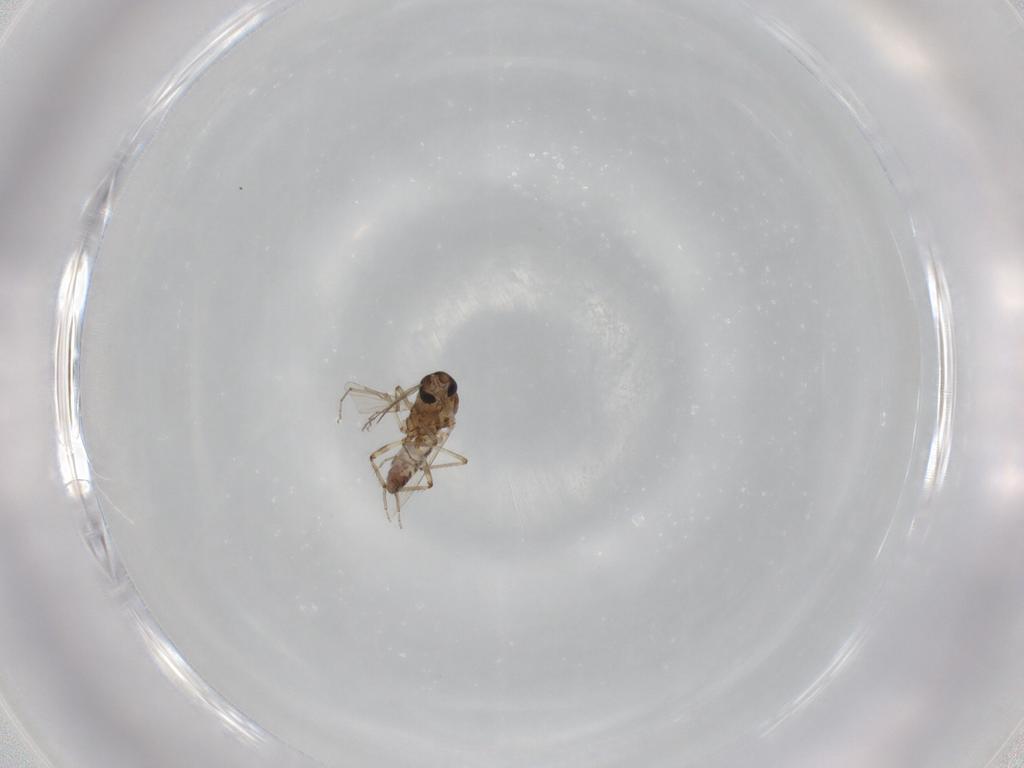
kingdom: Animalia
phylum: Arthropoda
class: Insecta
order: Diptera
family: Ceratopogonidae
